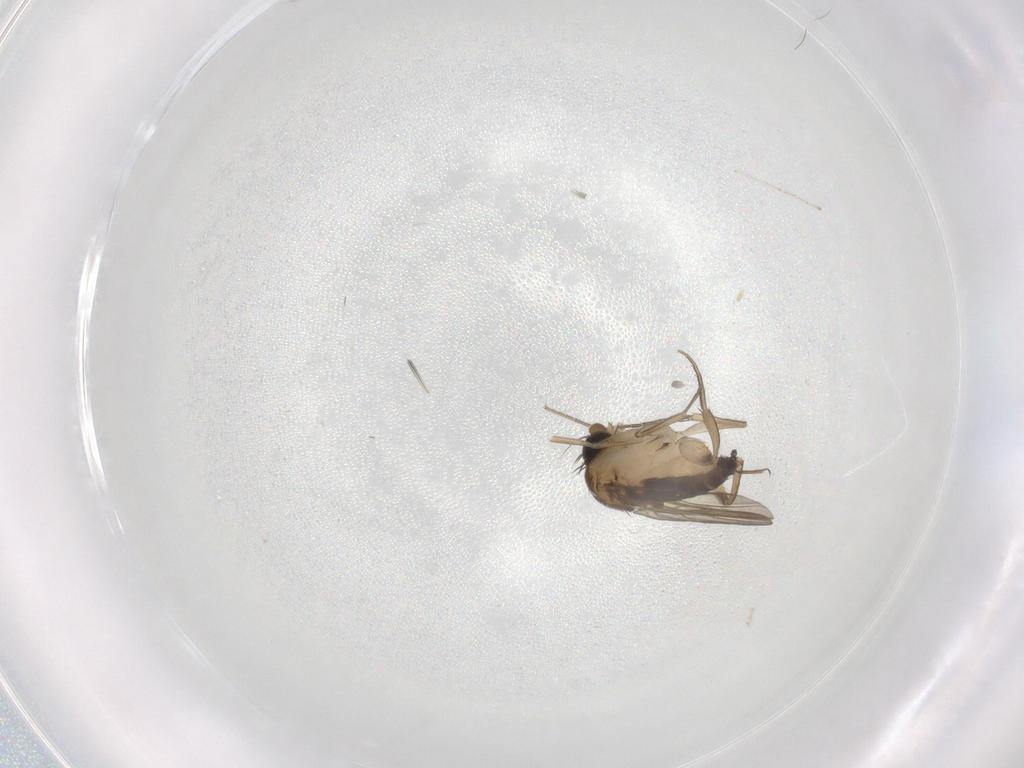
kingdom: Animalia
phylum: Arthropoda
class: Insecta
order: Diptera
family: Phoridae
